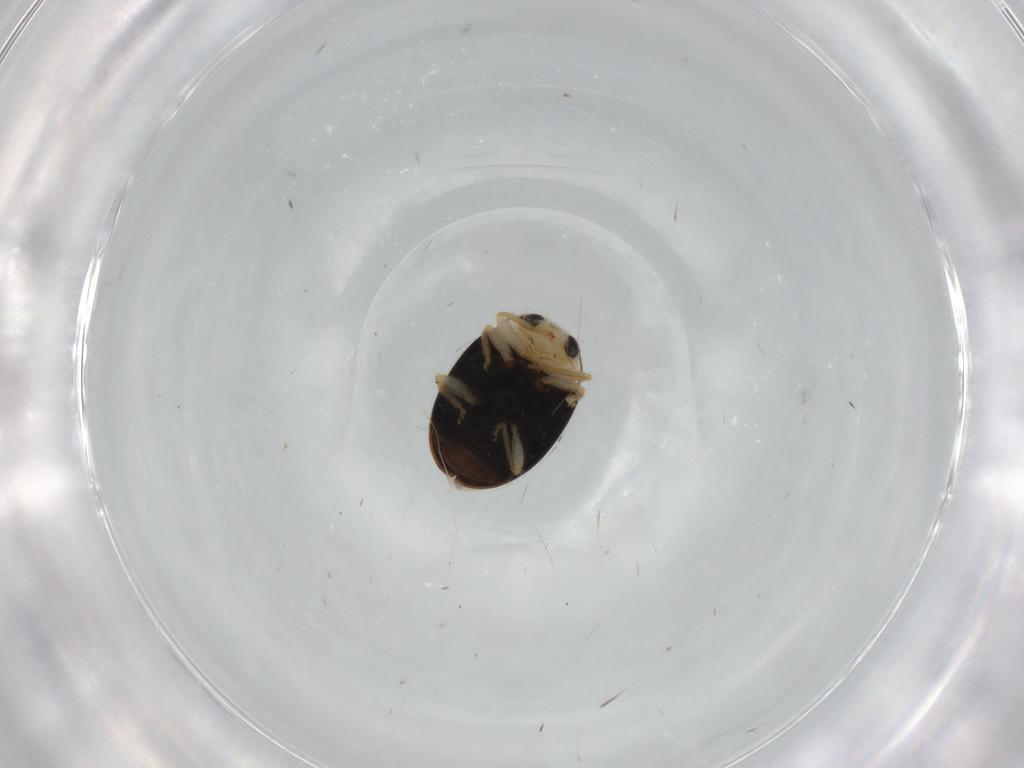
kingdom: Animalia
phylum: Arthropoda
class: Insecta
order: Coleoptera
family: Coccinellidae
